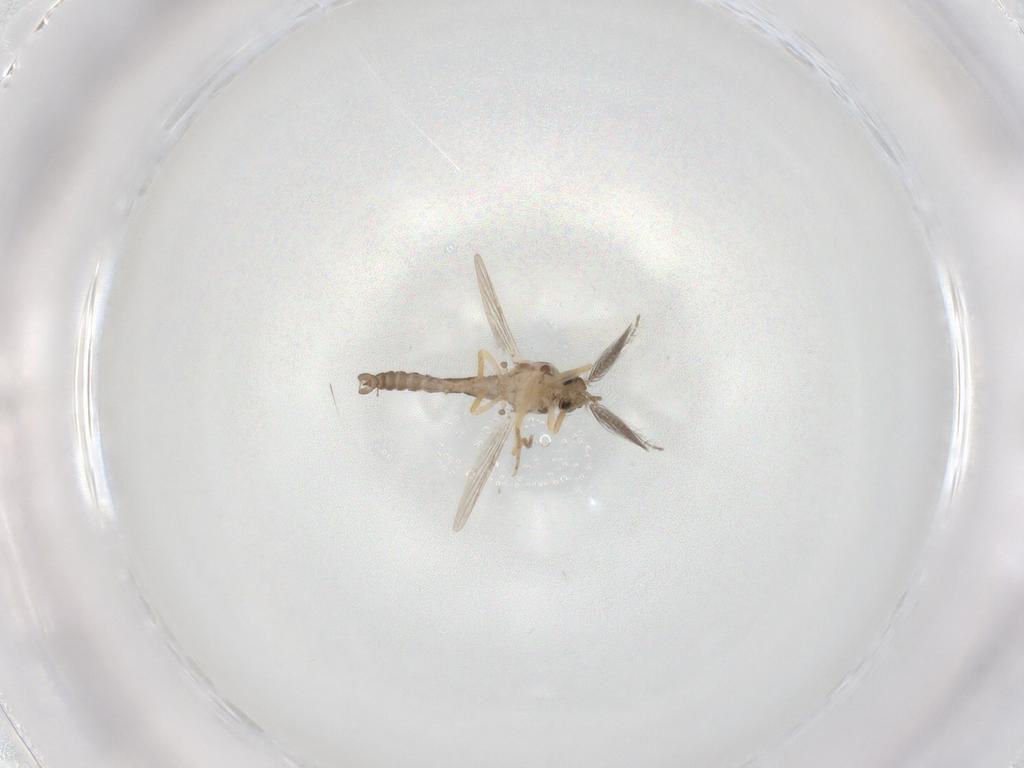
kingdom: Animalia
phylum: Arthropoda
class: Insecta
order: Diptera
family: Ceratopogonidae
